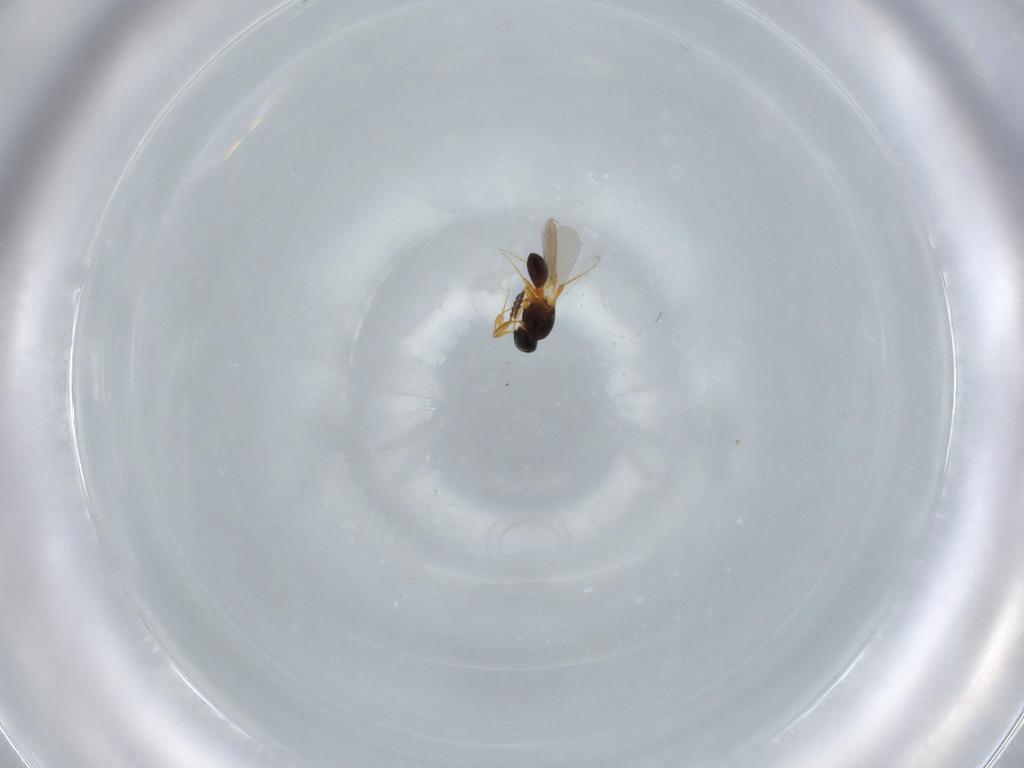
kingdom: Animalia
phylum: Arthropoda
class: Insecta
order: Hymenoptera
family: Platygastridae
